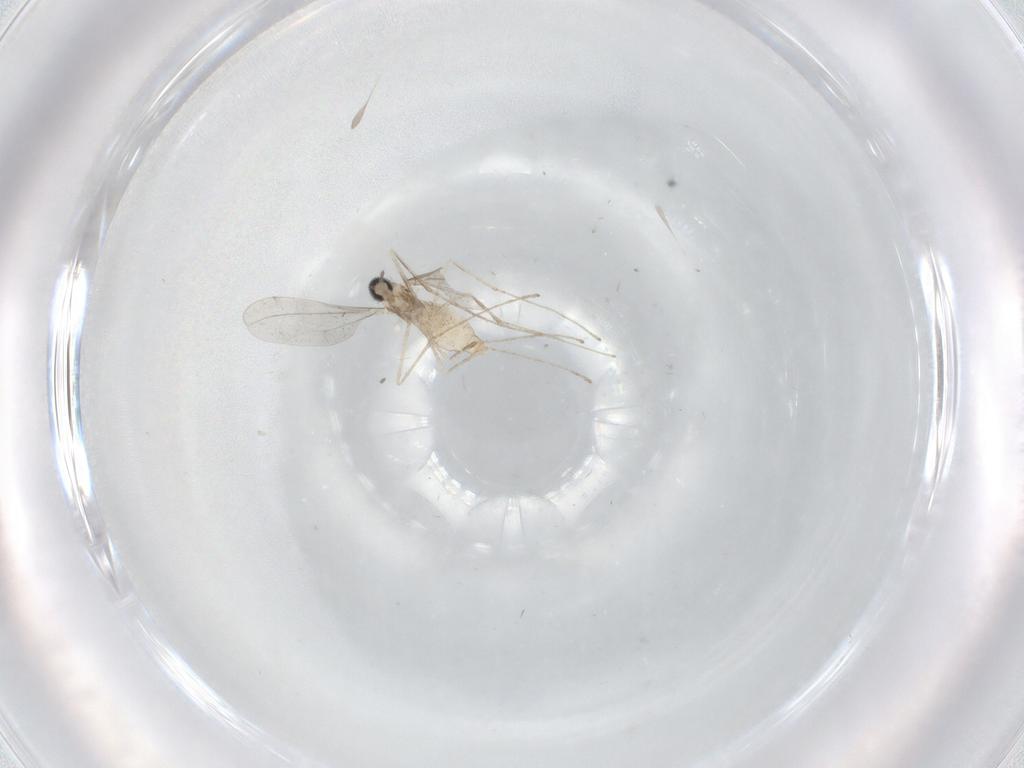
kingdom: Animalia
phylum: Arthropoda
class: Insecta
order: Diptera
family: Cecidomyiidae
